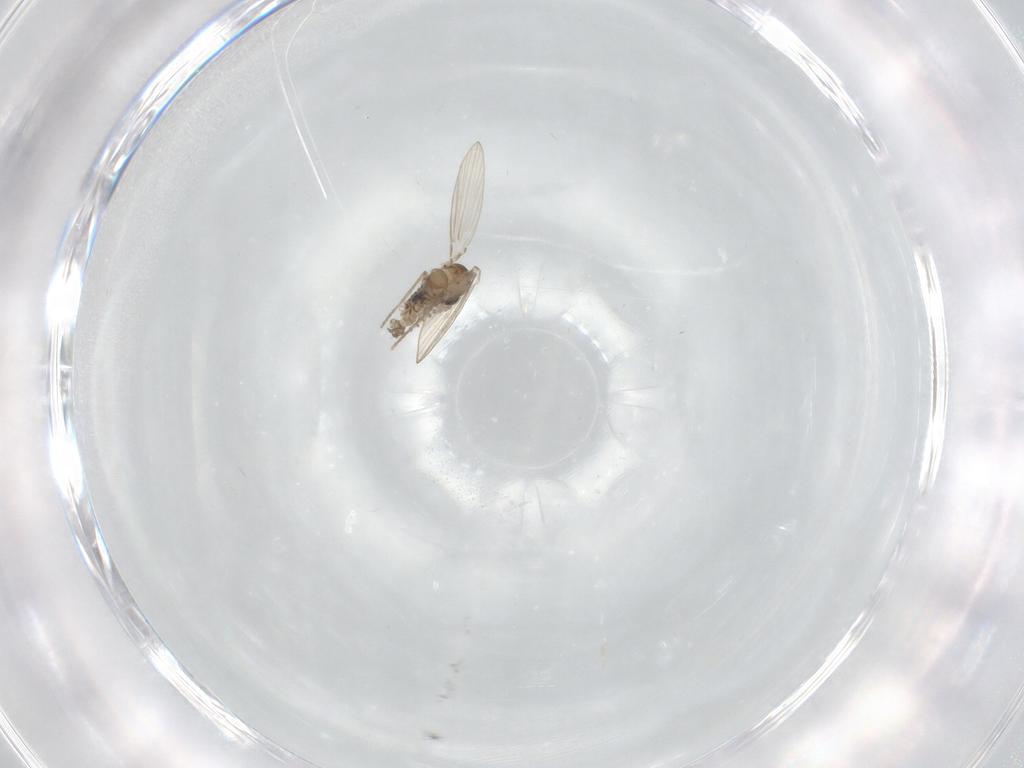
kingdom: Animalia
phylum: Arthropoda
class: Insecta
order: Diptera
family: Psychodidae
